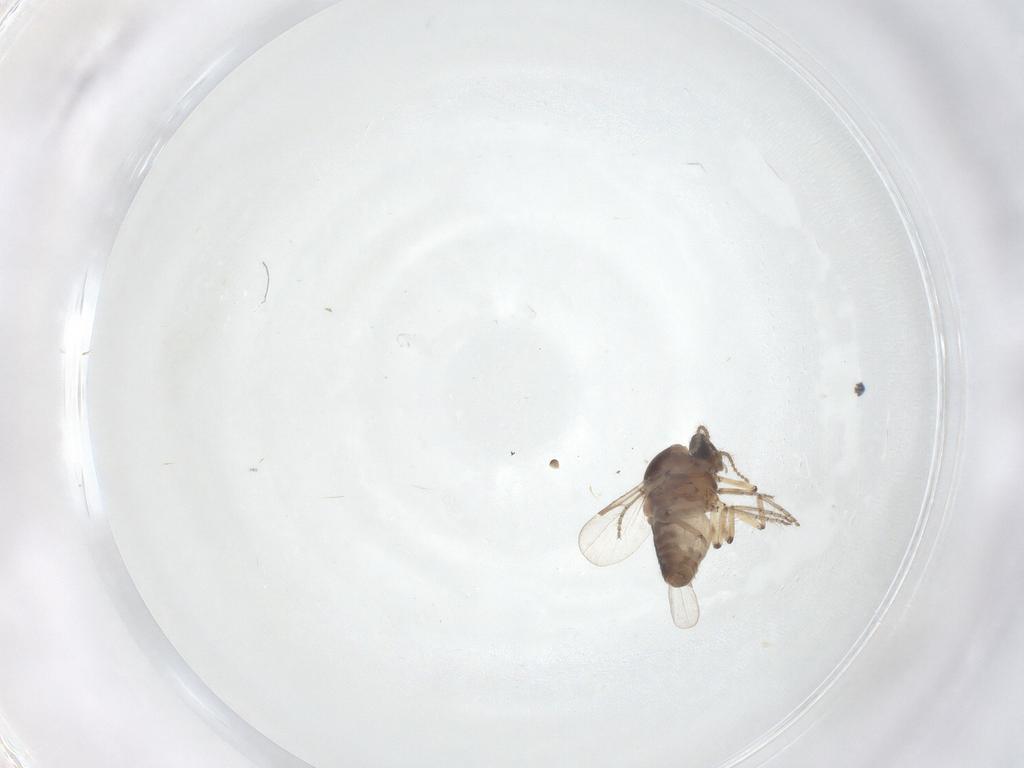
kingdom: Animalia
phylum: Arthropoda
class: Insecta
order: Diptera
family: Ceratopogonidae
